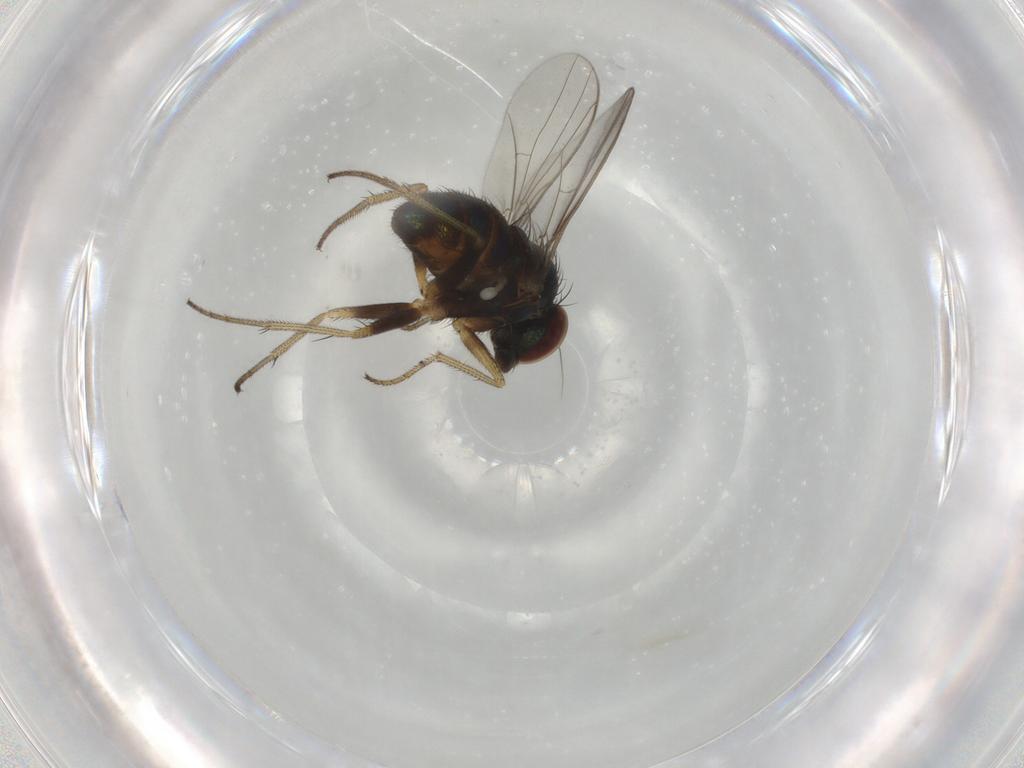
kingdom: Animalia
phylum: Arthropoda
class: Insecta
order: Diptera
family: Dolichopodidae
